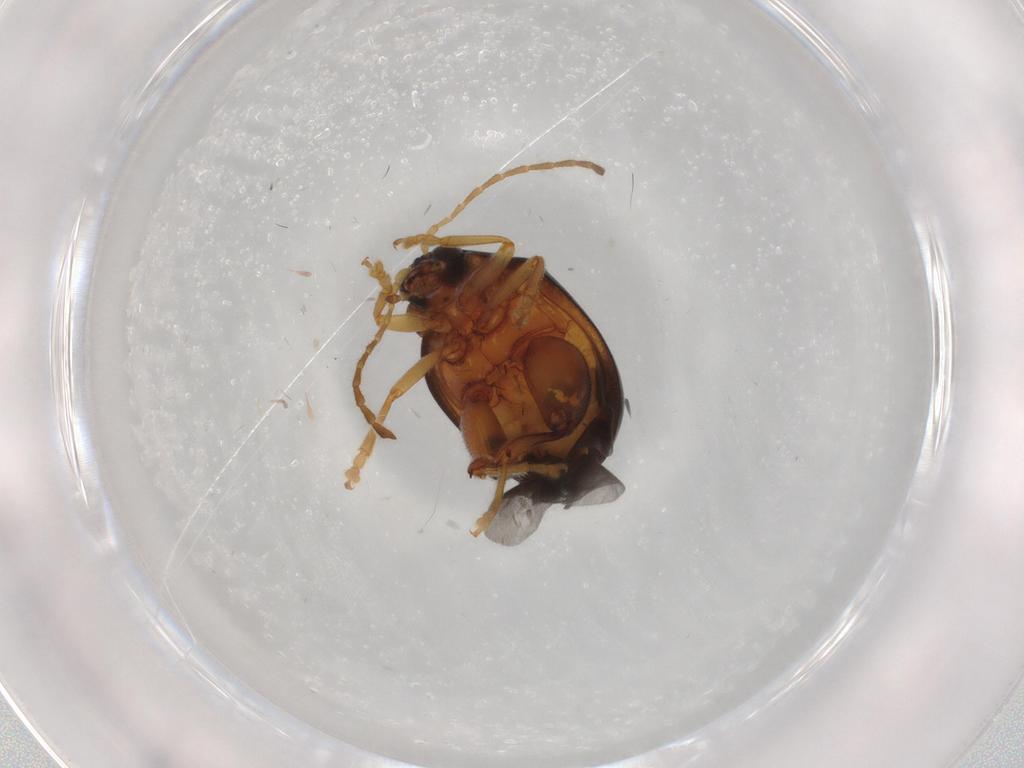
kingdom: Animalia
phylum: Arthropoda
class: Insecta
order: Coleoptera
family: Chrysomelidae
